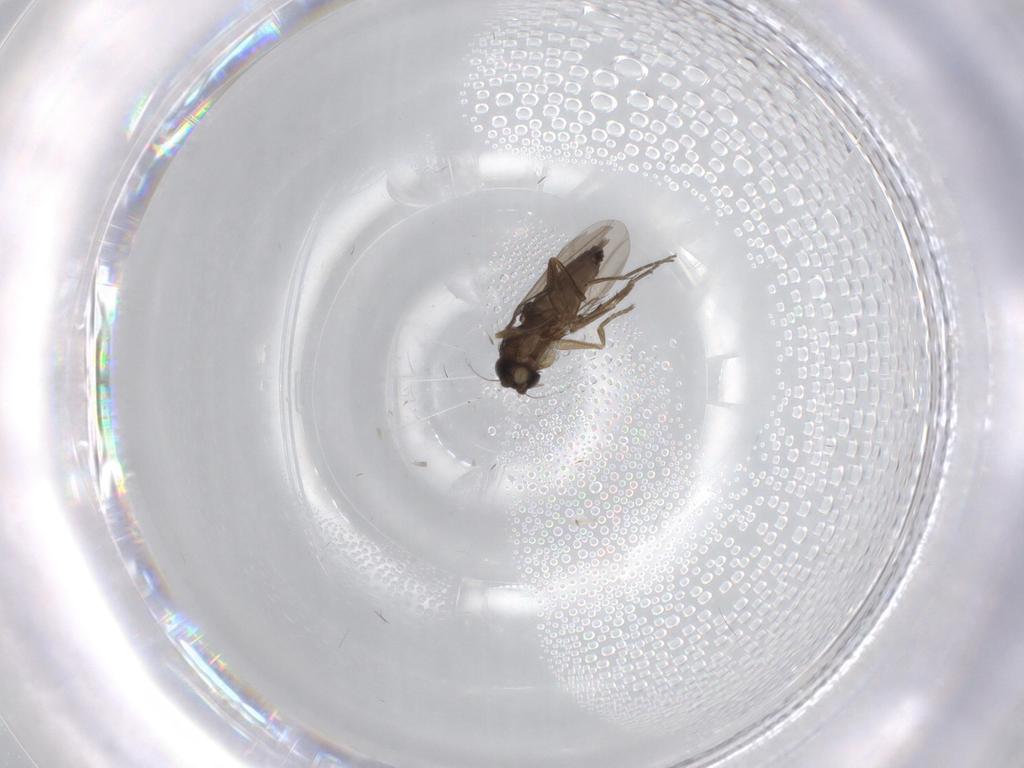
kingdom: Animalia
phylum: Arthropoda
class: Insecta
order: Diptera
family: Phoridae
